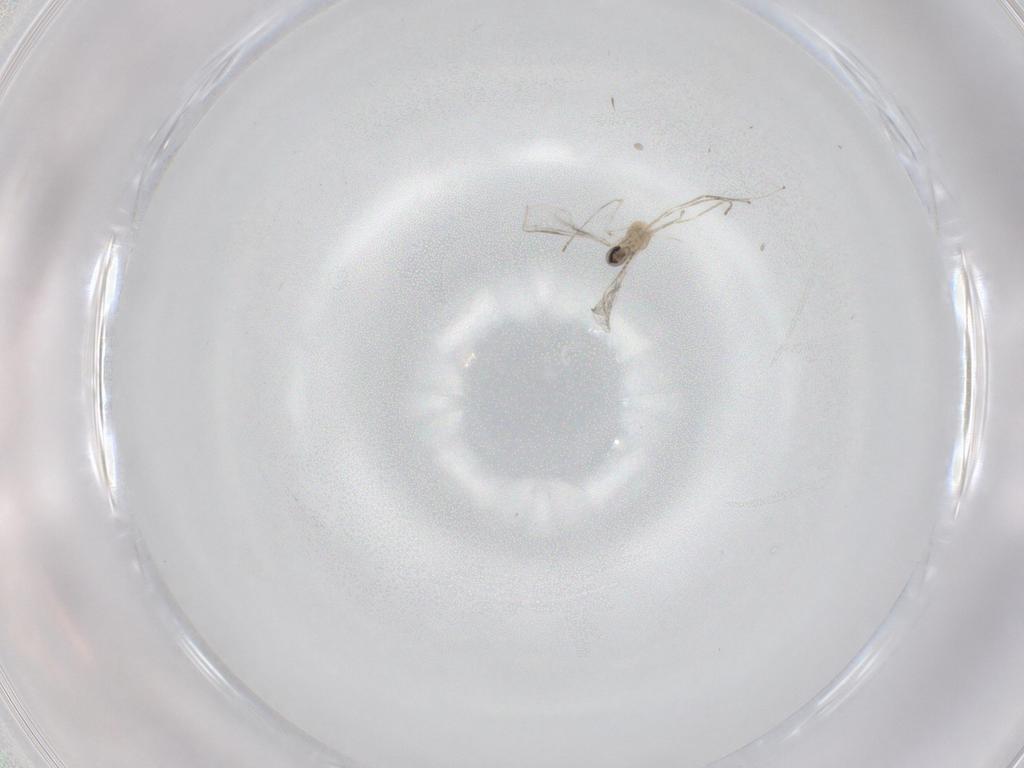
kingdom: Animalia
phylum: Arthropoda
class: Insecta
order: Diptera
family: Cecidomyiidae
